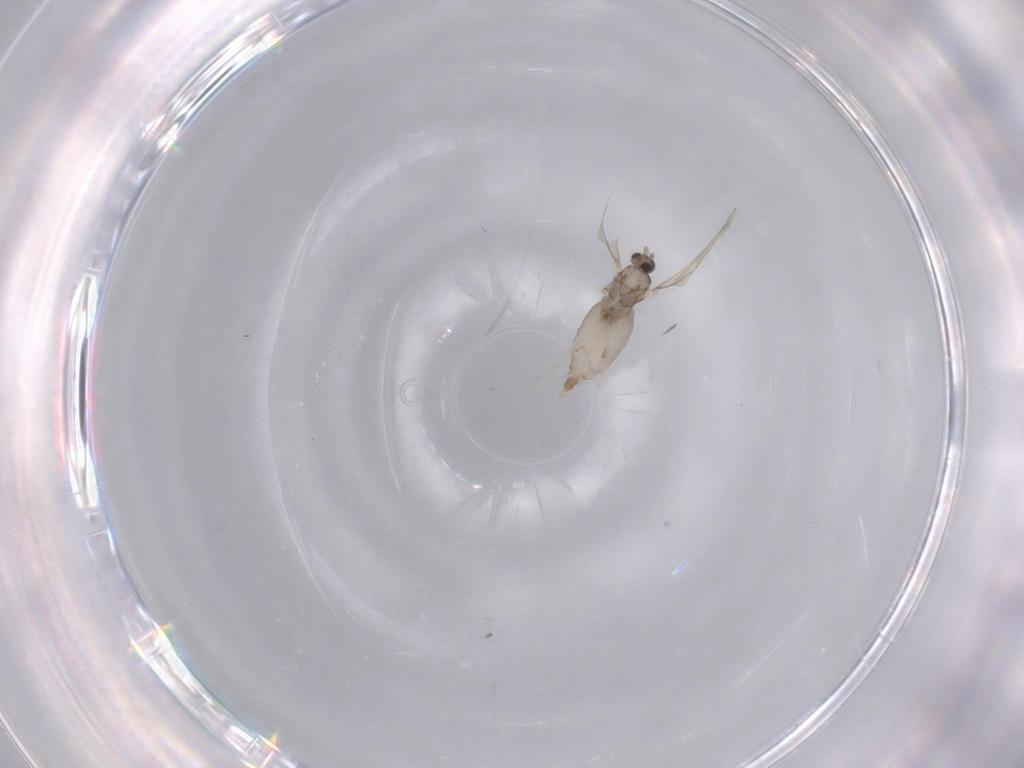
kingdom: Animalia
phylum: Arthropoda
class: Insecta
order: Diptera
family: Cecidomyiidae
